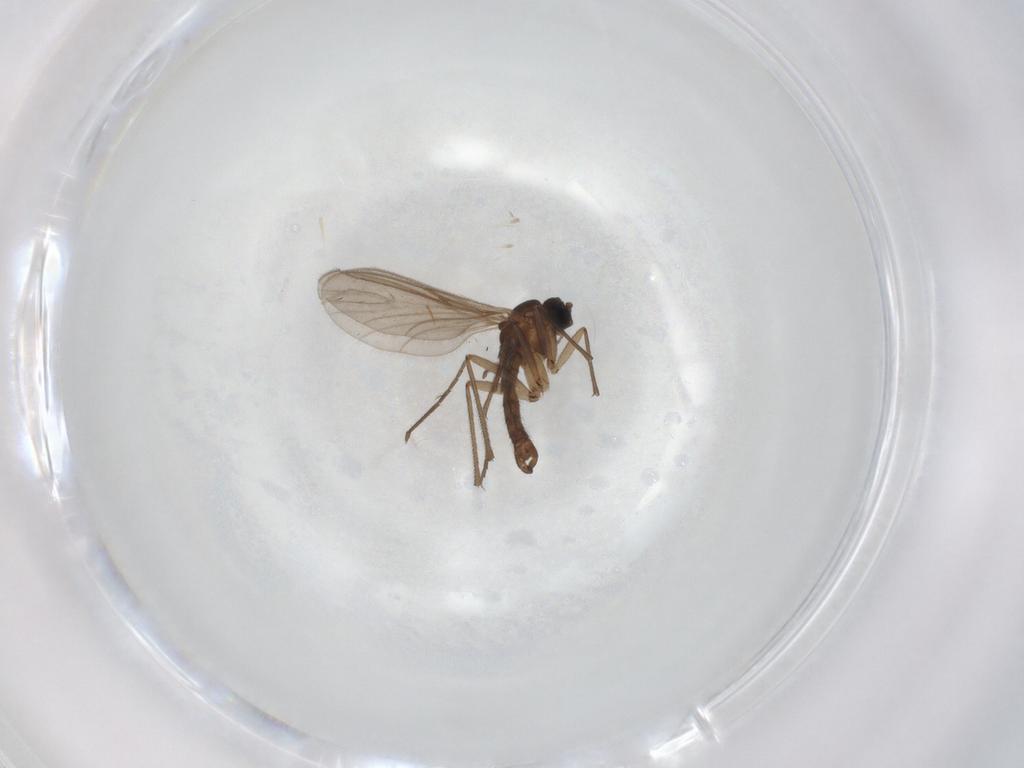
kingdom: Animalia
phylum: Arthropoda
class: Insecta
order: Diptera
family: Sciaridae
